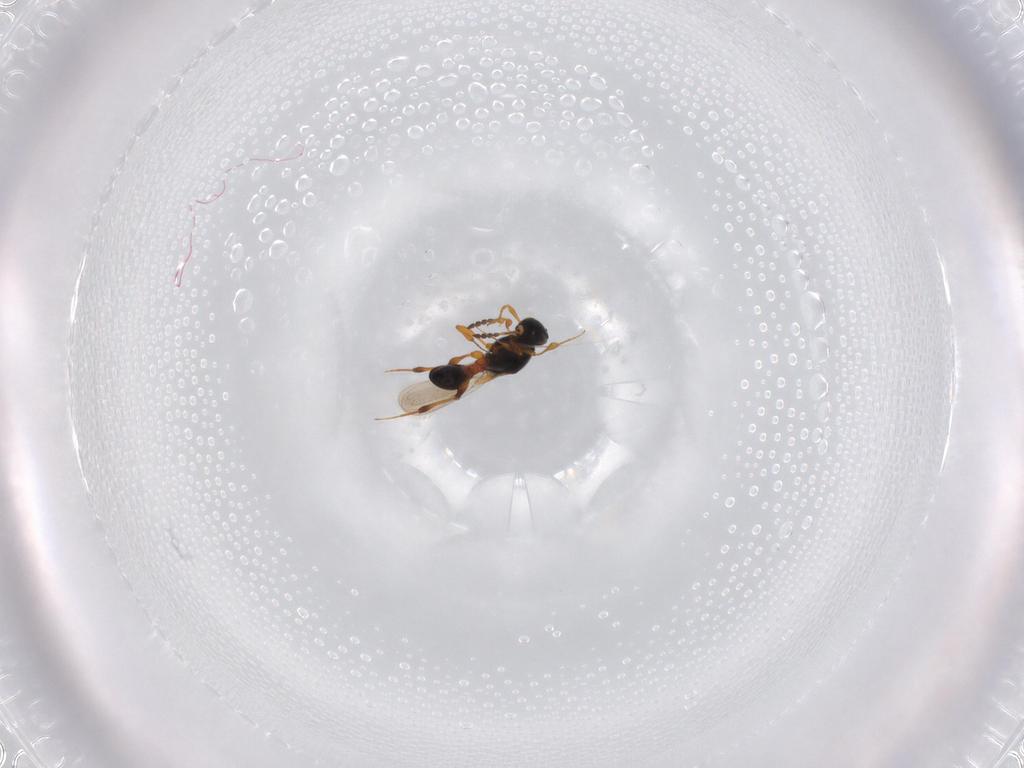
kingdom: Animalia
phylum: Arthropoda
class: Insecta
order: Hymenoptera
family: Platygastridae
